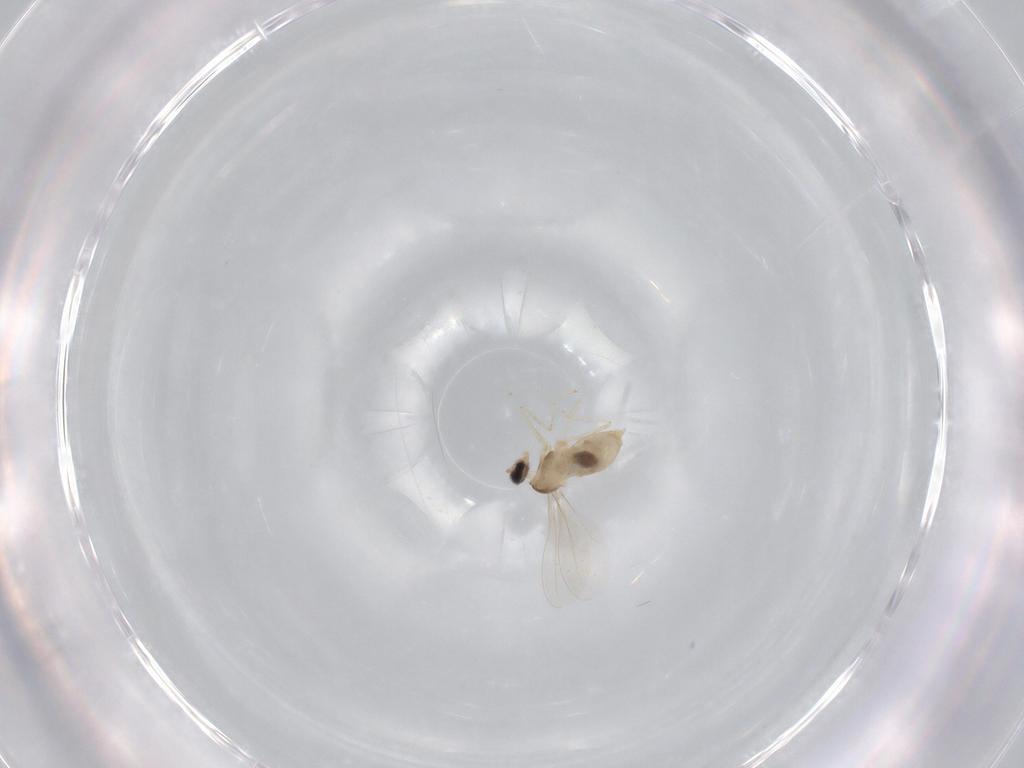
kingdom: Animalia
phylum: Arthropoda
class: Insecta
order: Diptera
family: Cecidomyiidae
